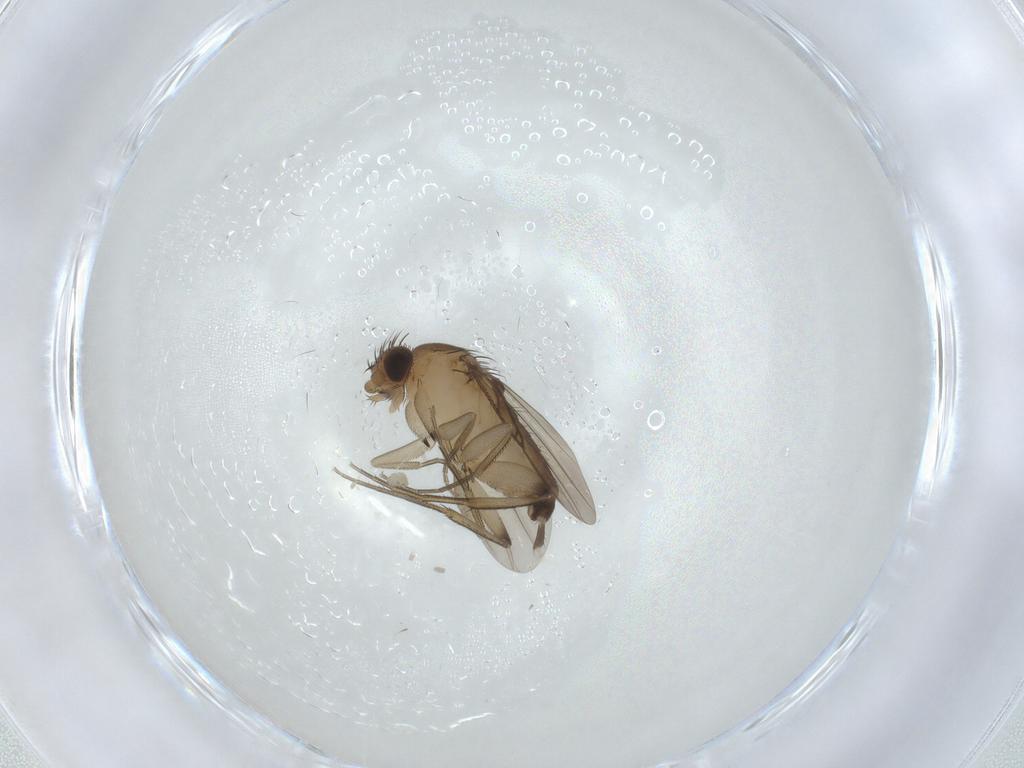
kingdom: Animalia
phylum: Arthropoda
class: Insecta
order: Diptera
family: Phoridae
